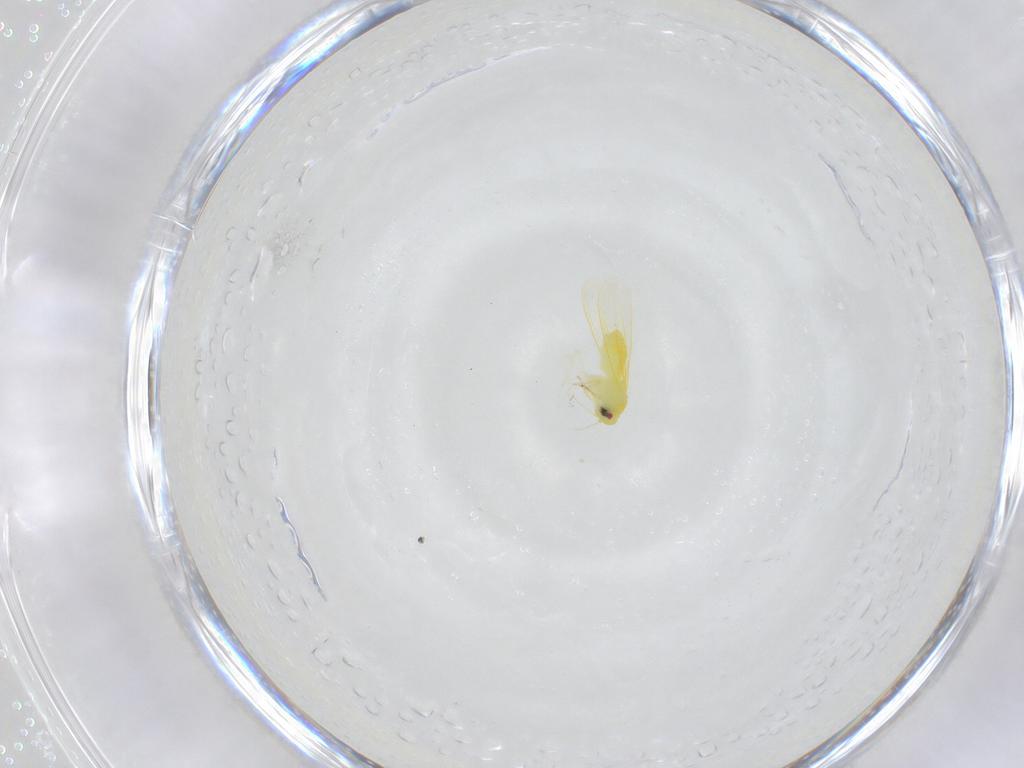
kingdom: Animalia
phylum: Arthropoda
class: Insecta
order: Hemiptera
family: Aleyrodidae
